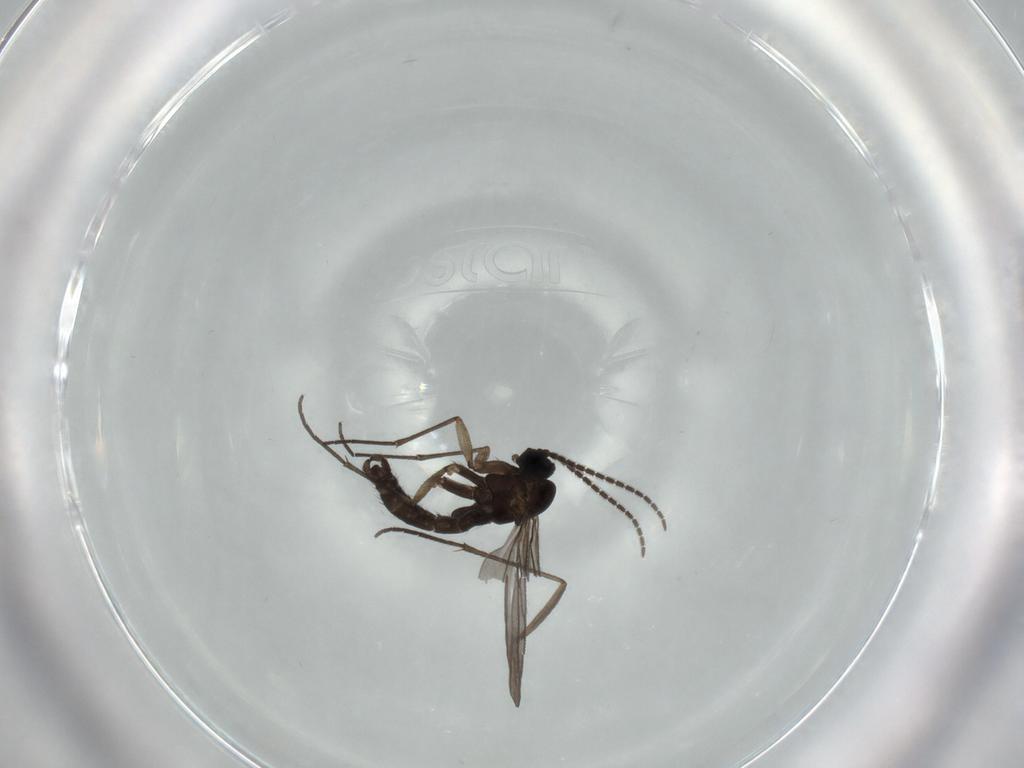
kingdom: Animalia
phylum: Arthropoda
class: Insecta
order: Diptera
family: Sciaridae
